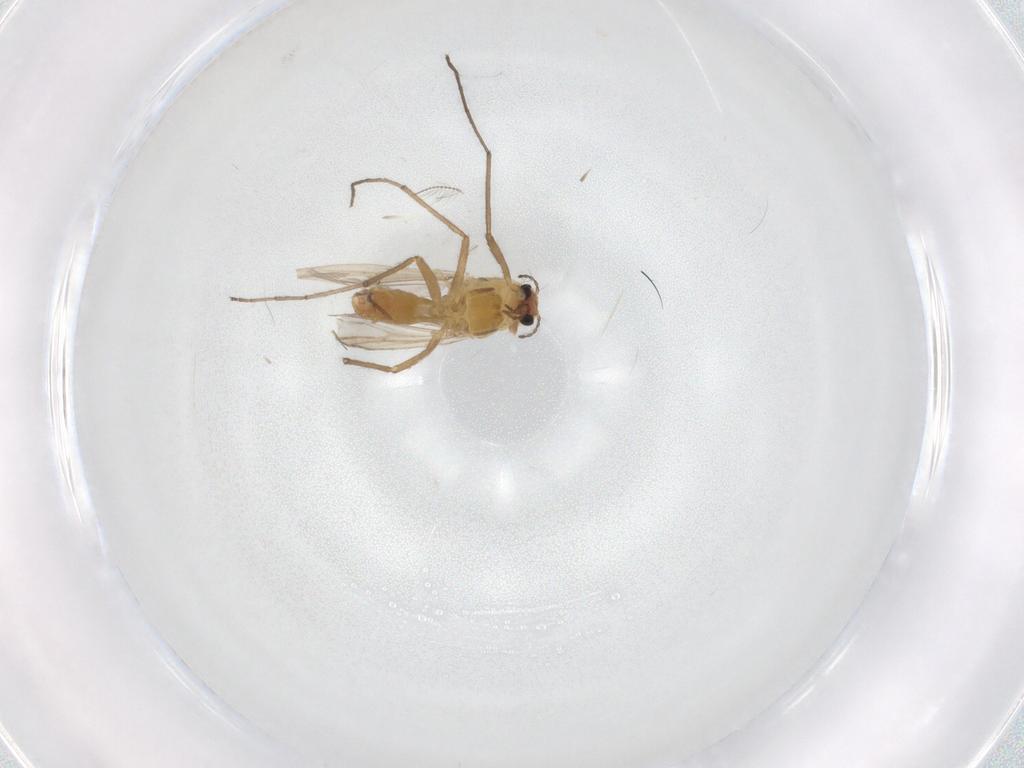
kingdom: Animalia
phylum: Arthropoda
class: Insecta
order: Diptera
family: Chironomidae
